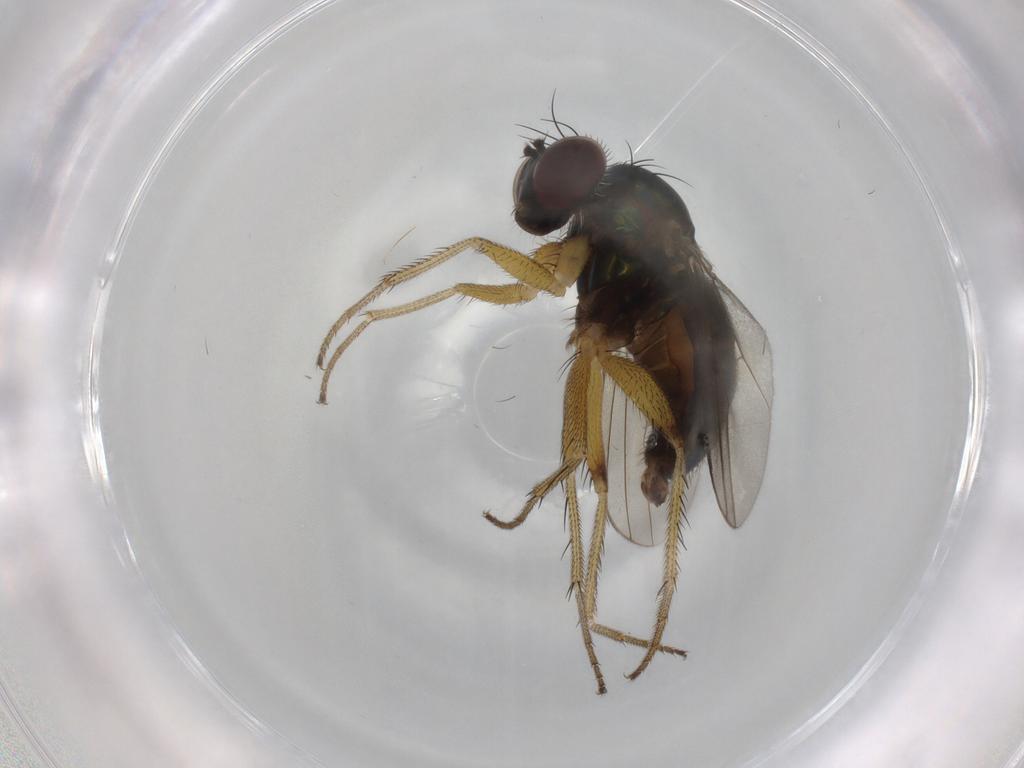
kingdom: Animalia
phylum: Arthropoda
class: Insecta
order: Diptera
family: Dolichopodidae
